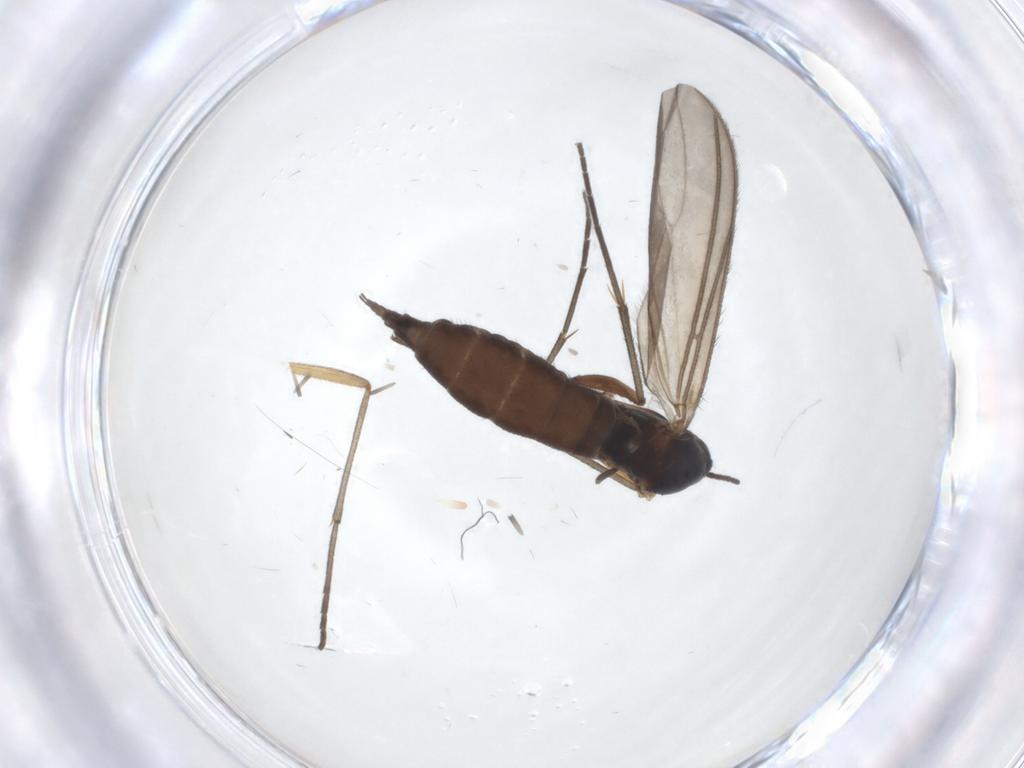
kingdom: Animalia
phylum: Arthropoda
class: Insecta
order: Diptera
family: Sciaridae
